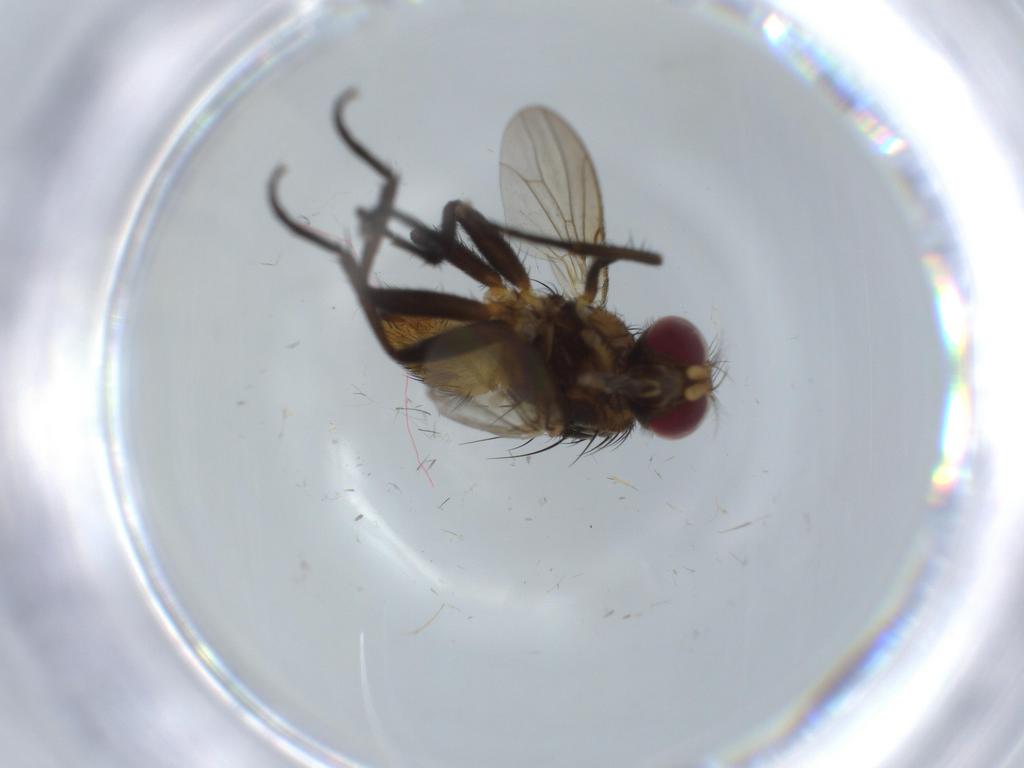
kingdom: Animalia
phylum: Arthropoda
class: Insecta
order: Diptera
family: Anthomyiidae
